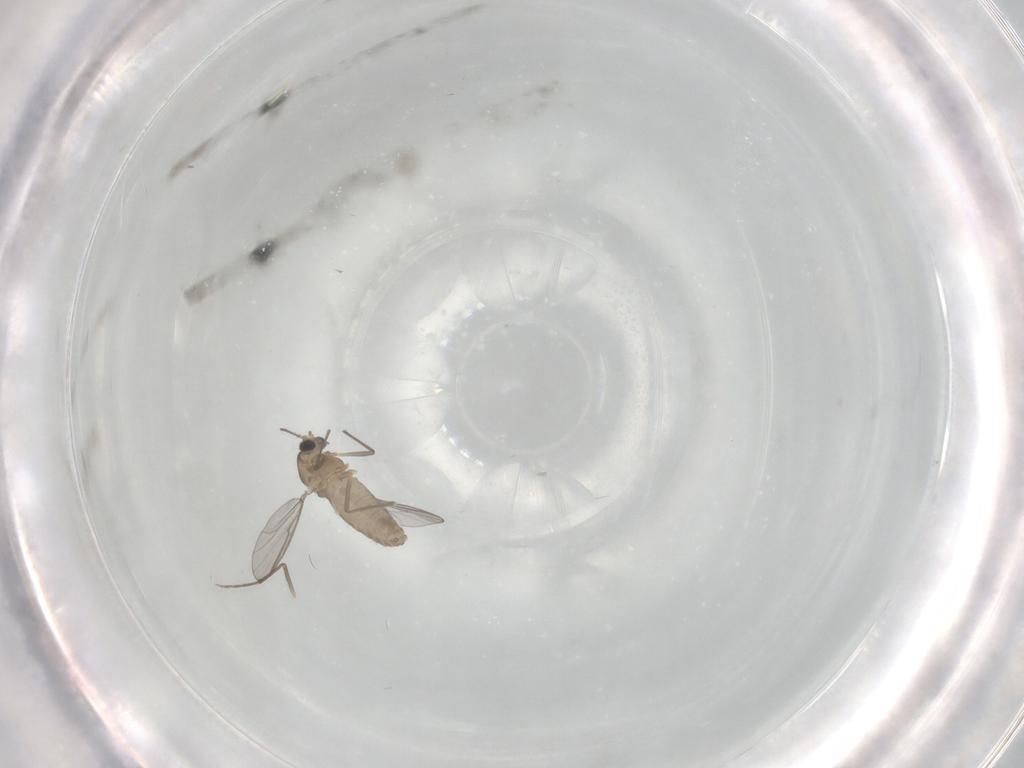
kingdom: Animalia
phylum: Arthropoda
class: Insecta
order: Diptera
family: Chironomidae
